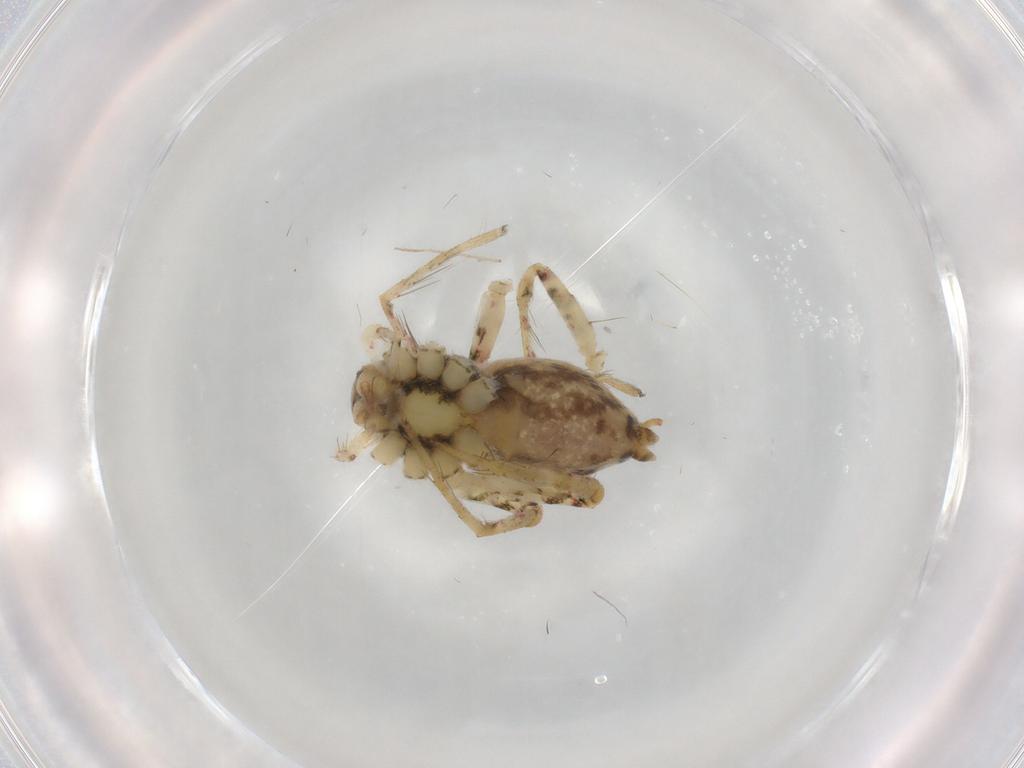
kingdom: Animalia
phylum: Arthropoda
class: Arachnida
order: Araneae
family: Anyphaenidae
